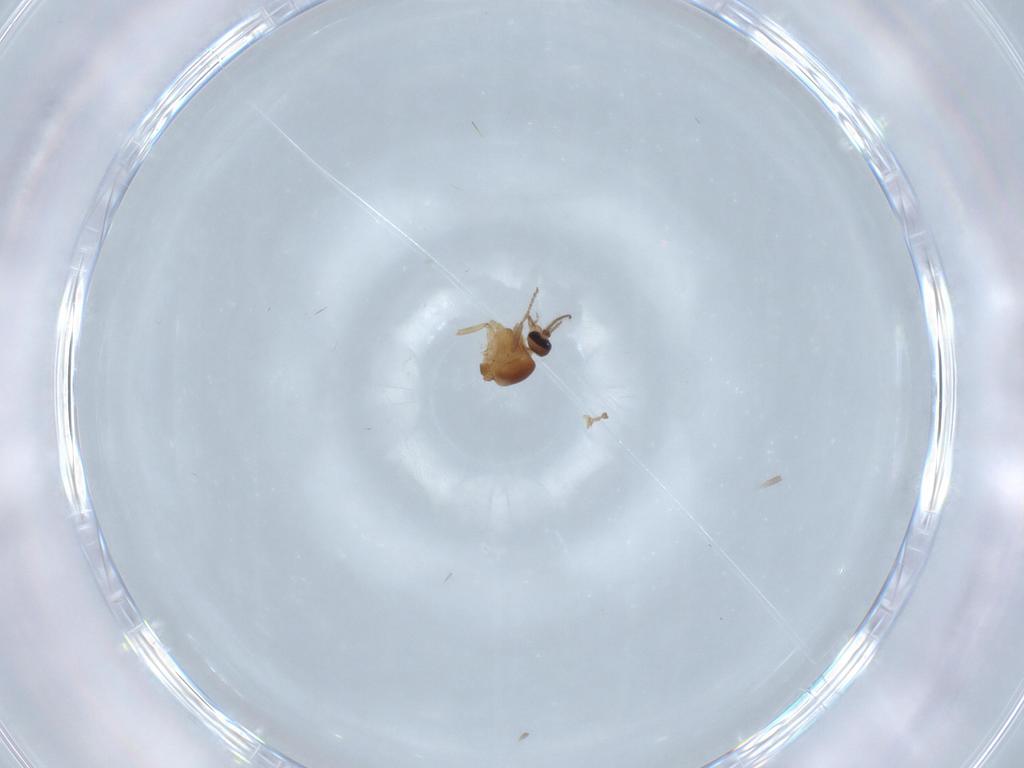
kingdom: Animalia
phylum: Arthropoda
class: Insecta
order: Diptera
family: Ceratopogonidae
